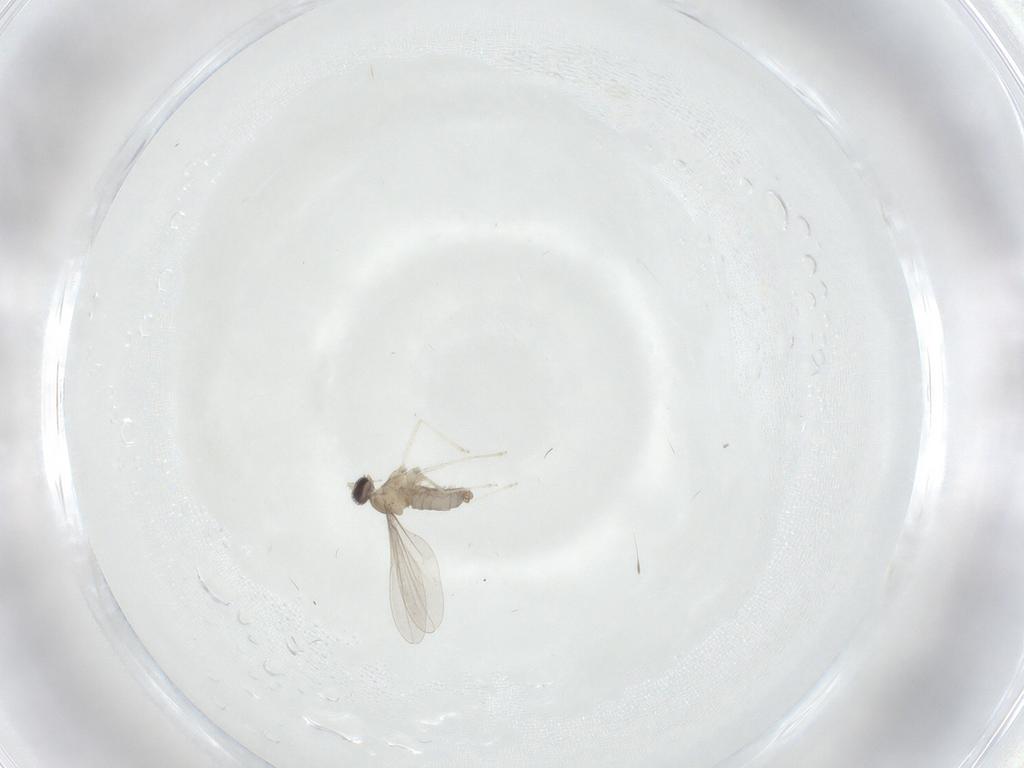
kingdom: Animalia
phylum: Arthropoda
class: Insecta
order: Diptera
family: Cecidomyiidae
